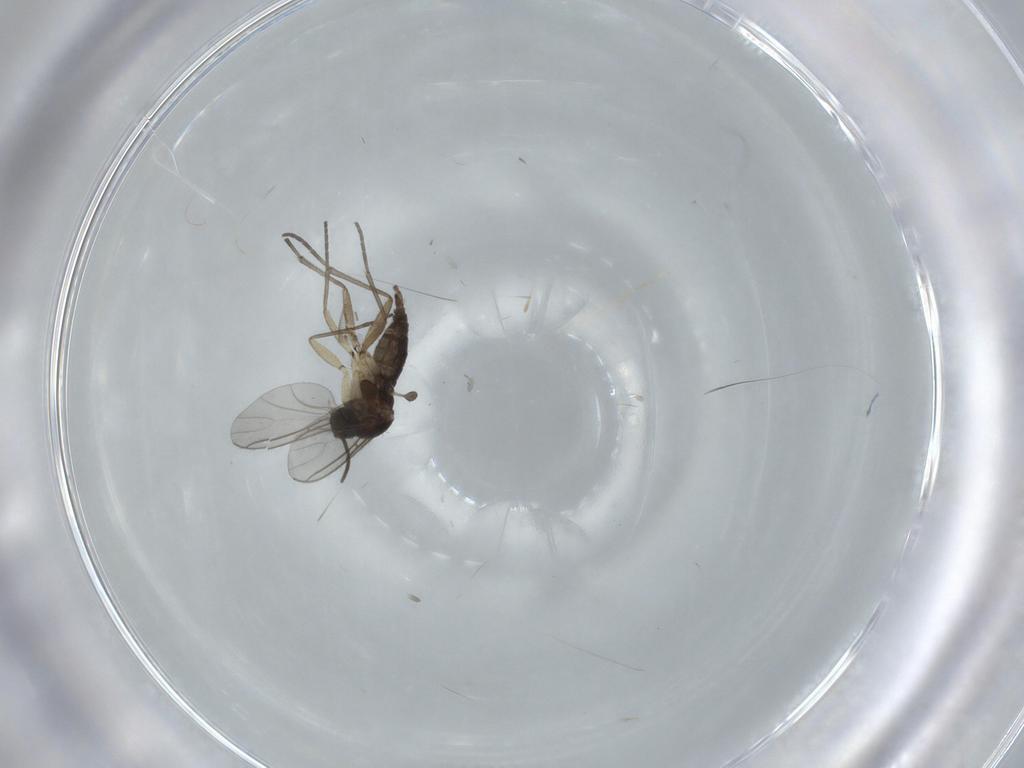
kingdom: Animalia
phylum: Arthropoda
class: Insecta
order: Diptera
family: Sciaridae
